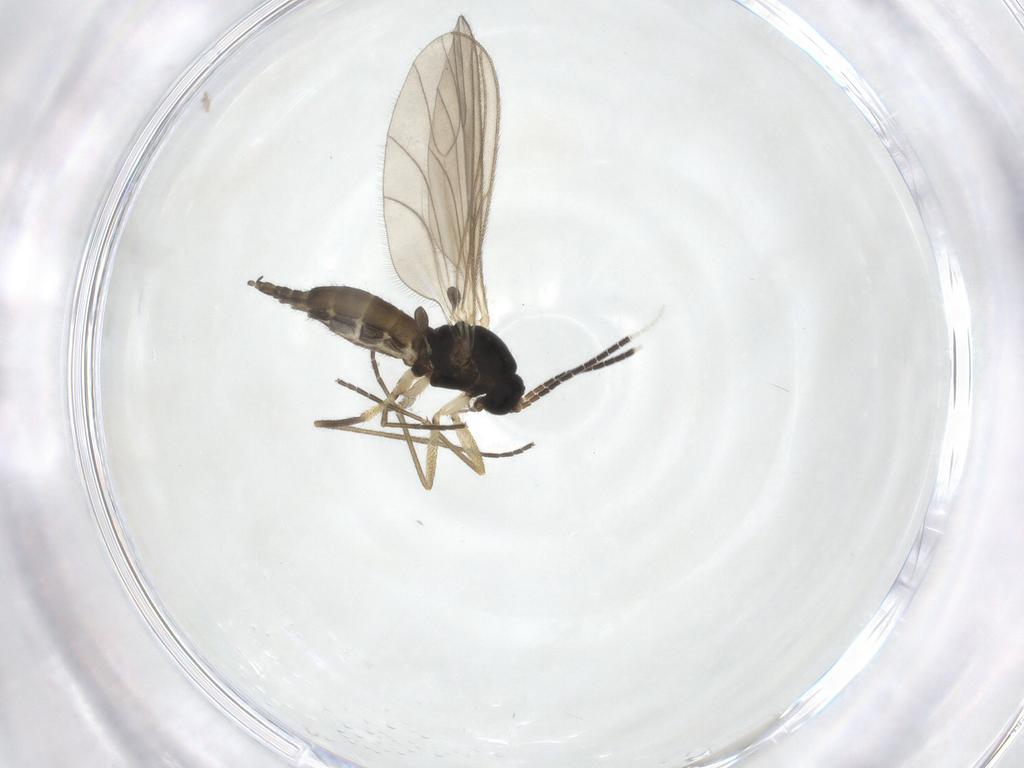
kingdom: Animalia
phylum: Arthropoda
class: Insecta
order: Diptera
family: Sciaridae
